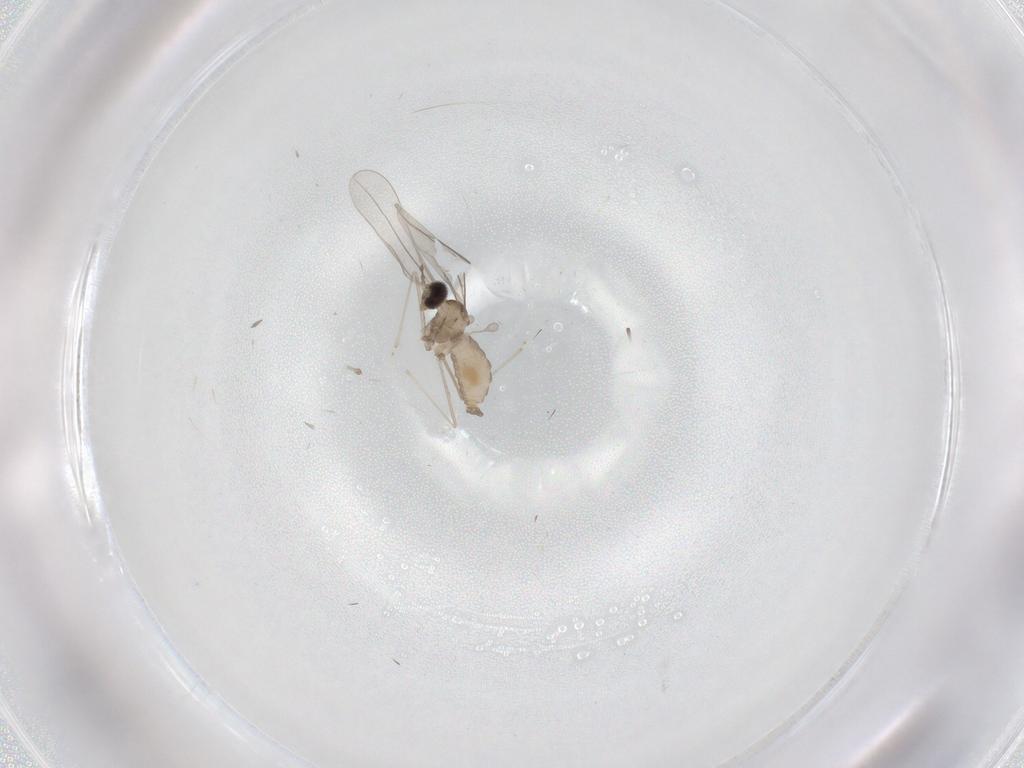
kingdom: Animalia
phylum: Arthropoda
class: Insecta
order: Diptera
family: Cecidomyiidae
